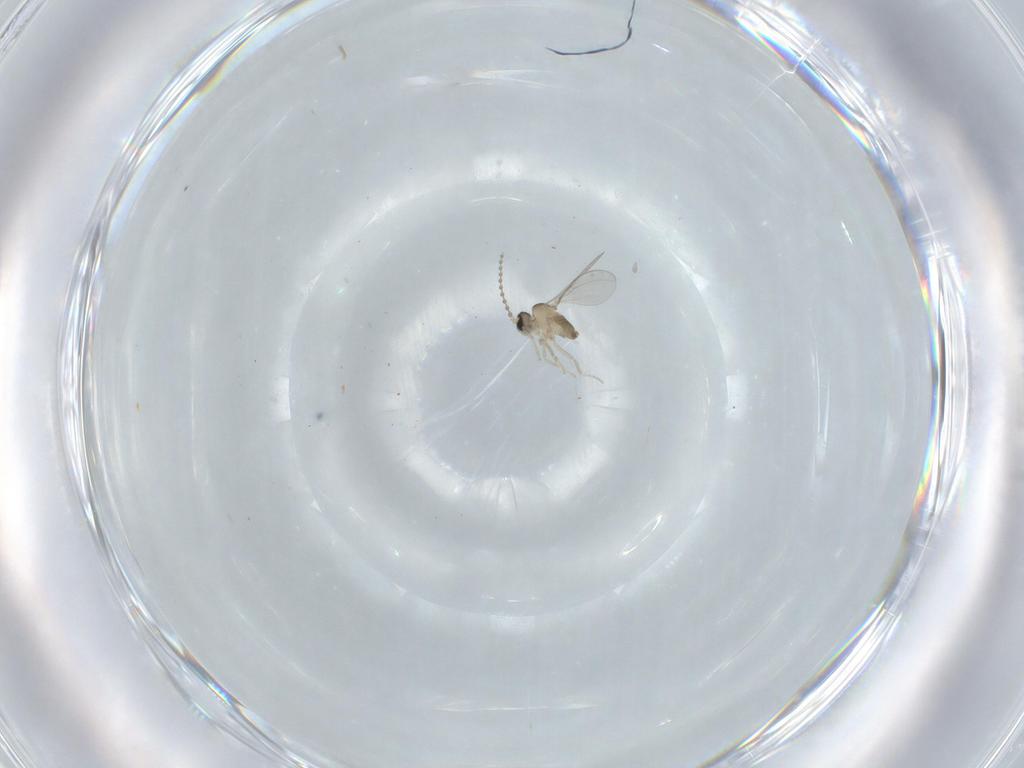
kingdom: Animalia
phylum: Arthropoda
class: Insecta
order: Diptera
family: Cecidomyiidae
